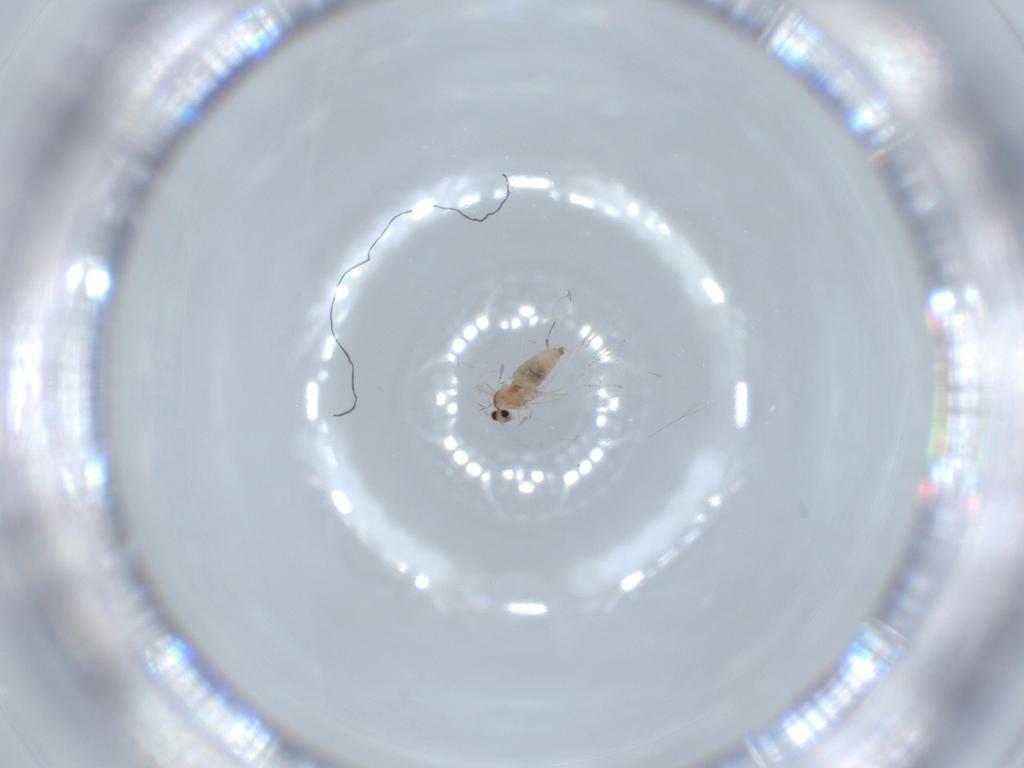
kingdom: Animalia
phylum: Arthropoda
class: Insecta
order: Diptera
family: Cecidomyiidae
